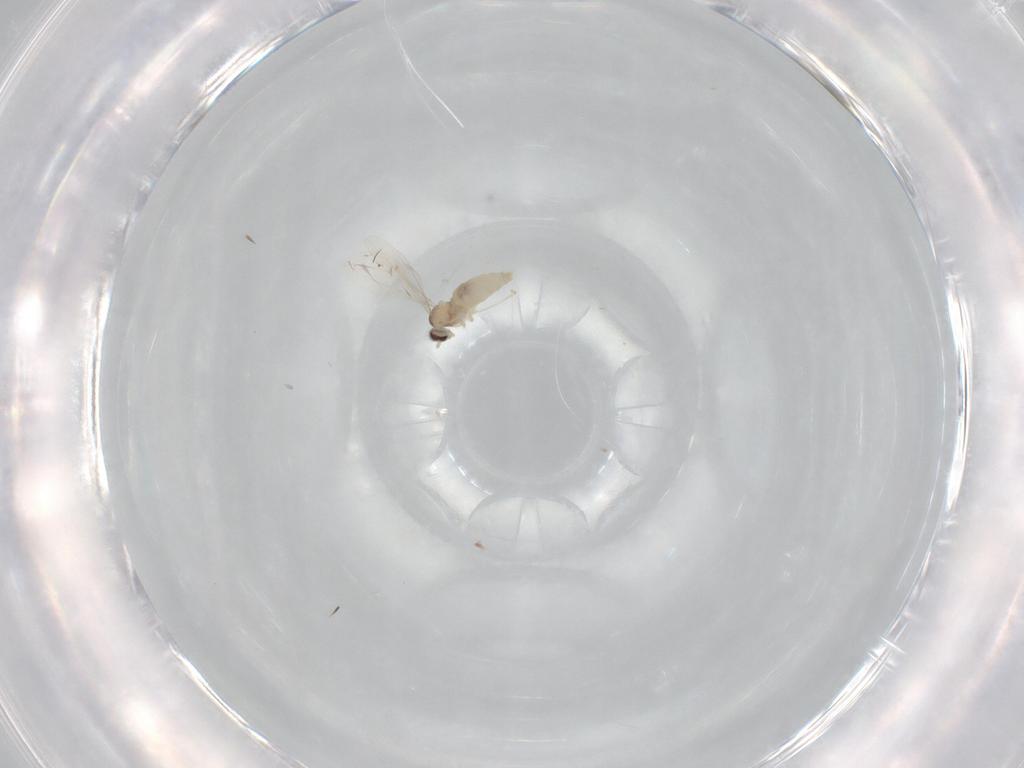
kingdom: Animalia
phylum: Arthropoda
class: Insecta
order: Diptera
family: Cecidomyiidae
